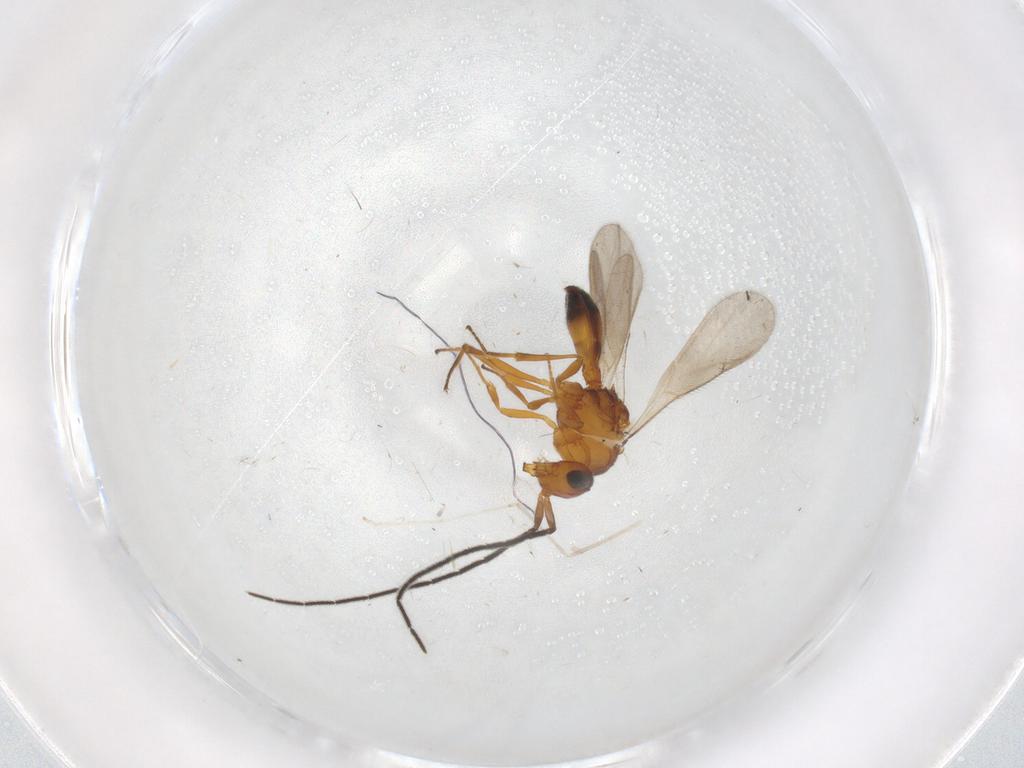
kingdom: Animalia
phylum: Arthropoda
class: Insecta
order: Hymenoptera
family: Scelionidae
